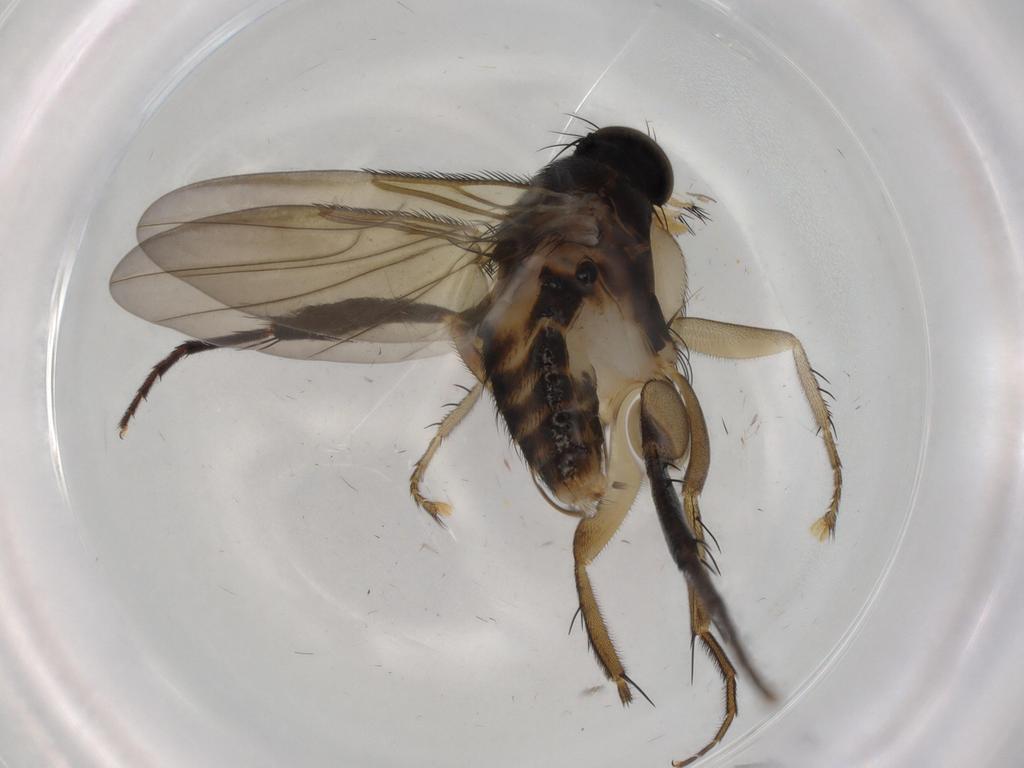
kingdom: Animalia
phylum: Arthropoda
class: Insecta
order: Diptera
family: Phoridae
